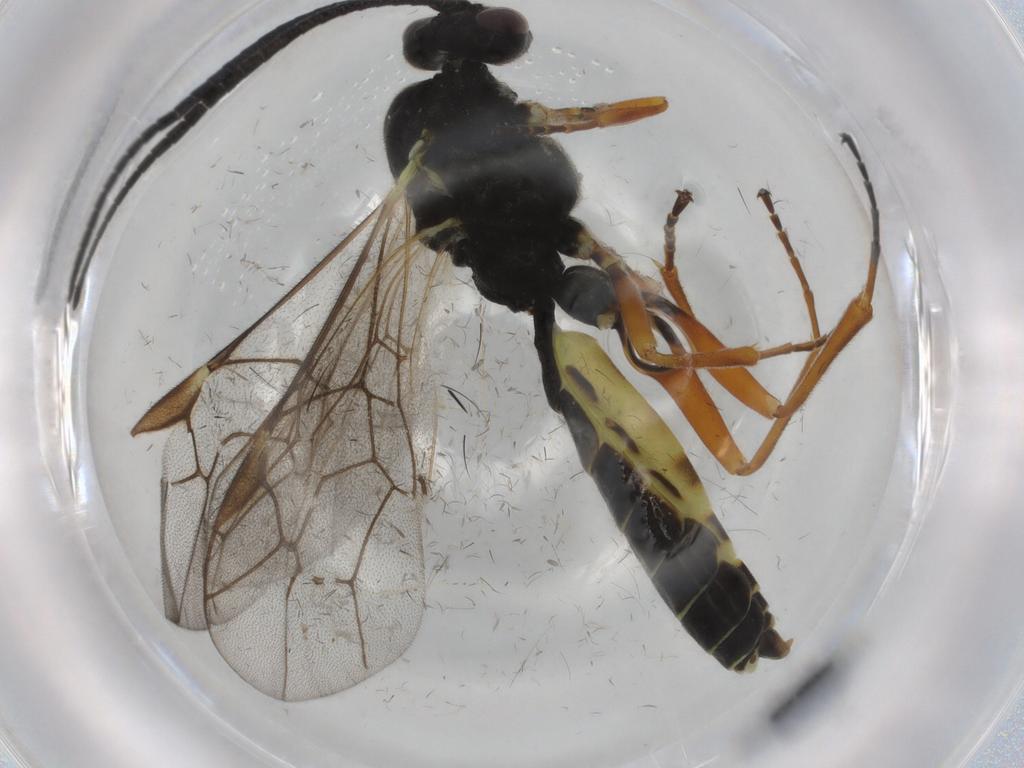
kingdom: Animalia
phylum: Arthropoda
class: Insecta
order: Hymenoptera
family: Ichneumonidae
